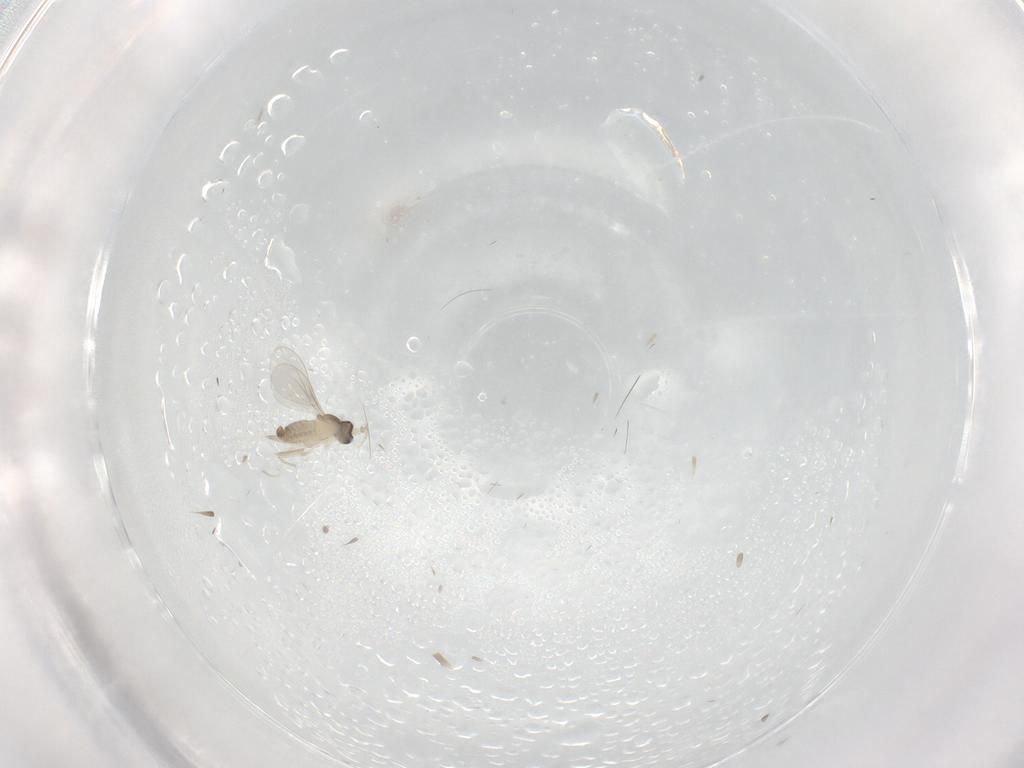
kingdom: Animalia
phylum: Arthropoda
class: Insecta
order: Diptera
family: Cecidomyiidae
